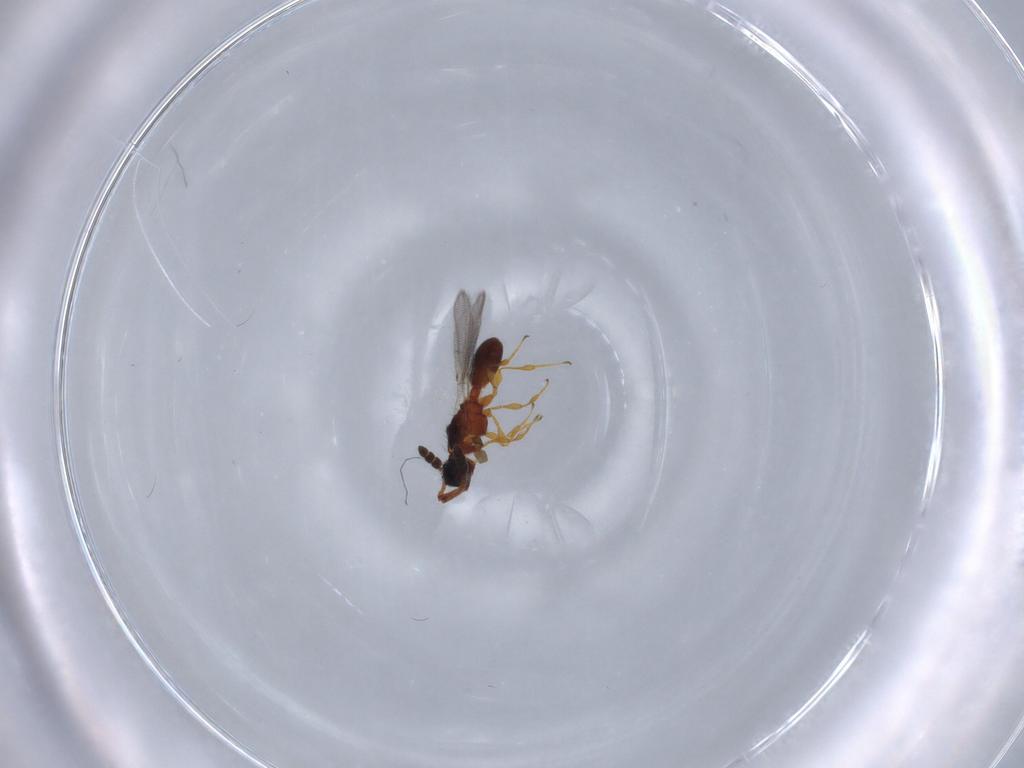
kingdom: Animalia
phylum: Arthropoda
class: Insecta
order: Hymenoptera
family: Diapriidae
